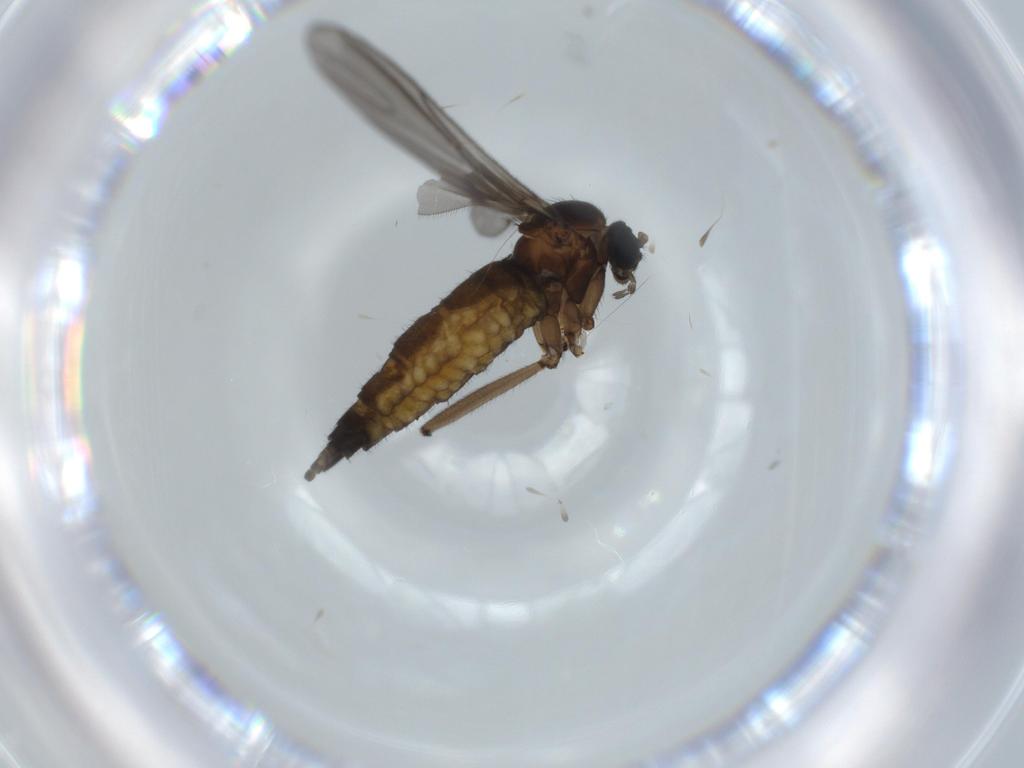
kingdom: Animalia
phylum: Arthropoda
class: Insecta
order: Diptera
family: Sciaridae
